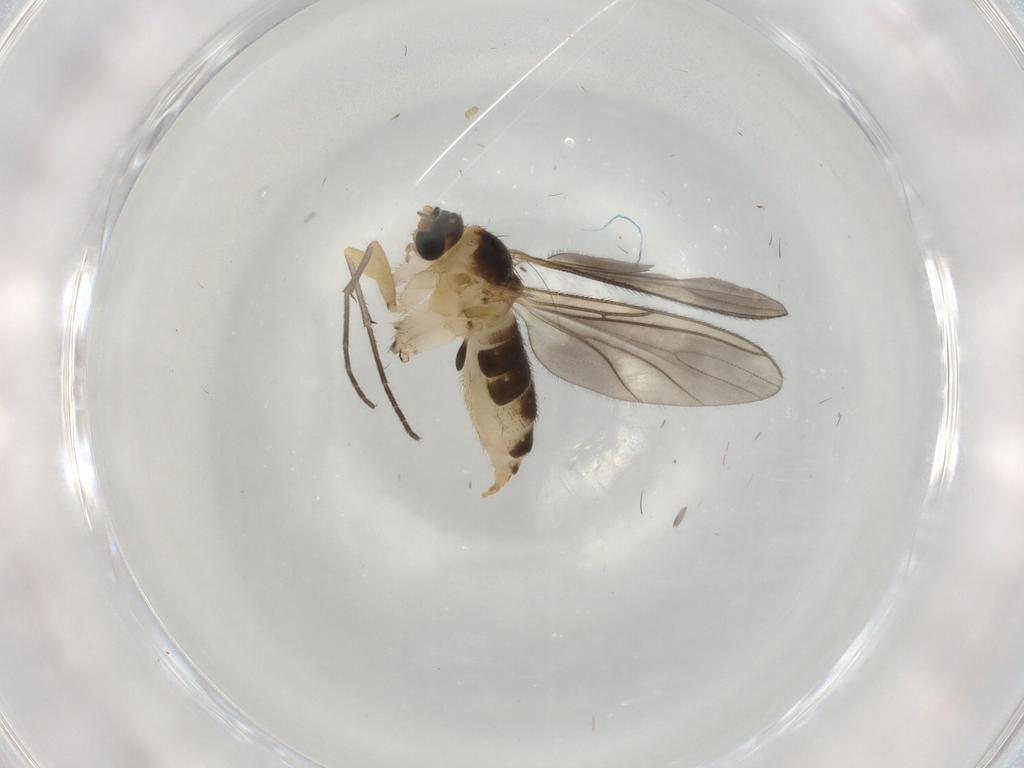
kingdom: Animalia
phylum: Arthropoda
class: Insecta
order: Diptera
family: Sciaridae
